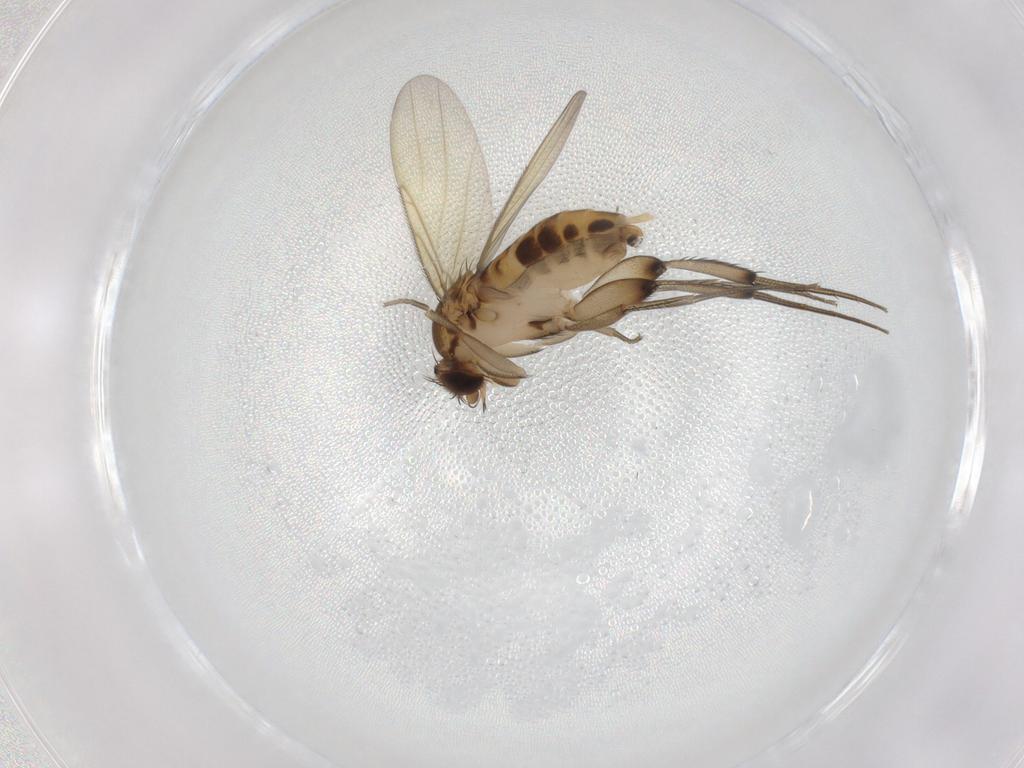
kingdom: Animalia
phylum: Arthropoda
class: Insecta
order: Diptera
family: Phoridae
